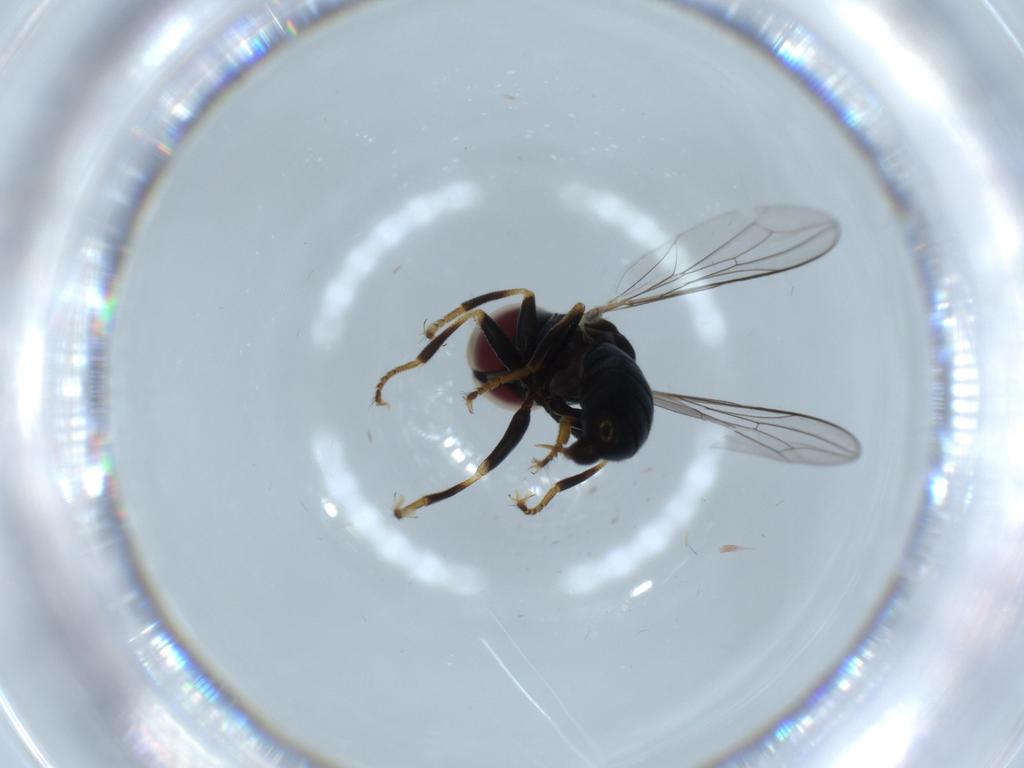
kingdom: Animalia
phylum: Arthropoda
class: Insecta
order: Diptera
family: Pipunculidae
